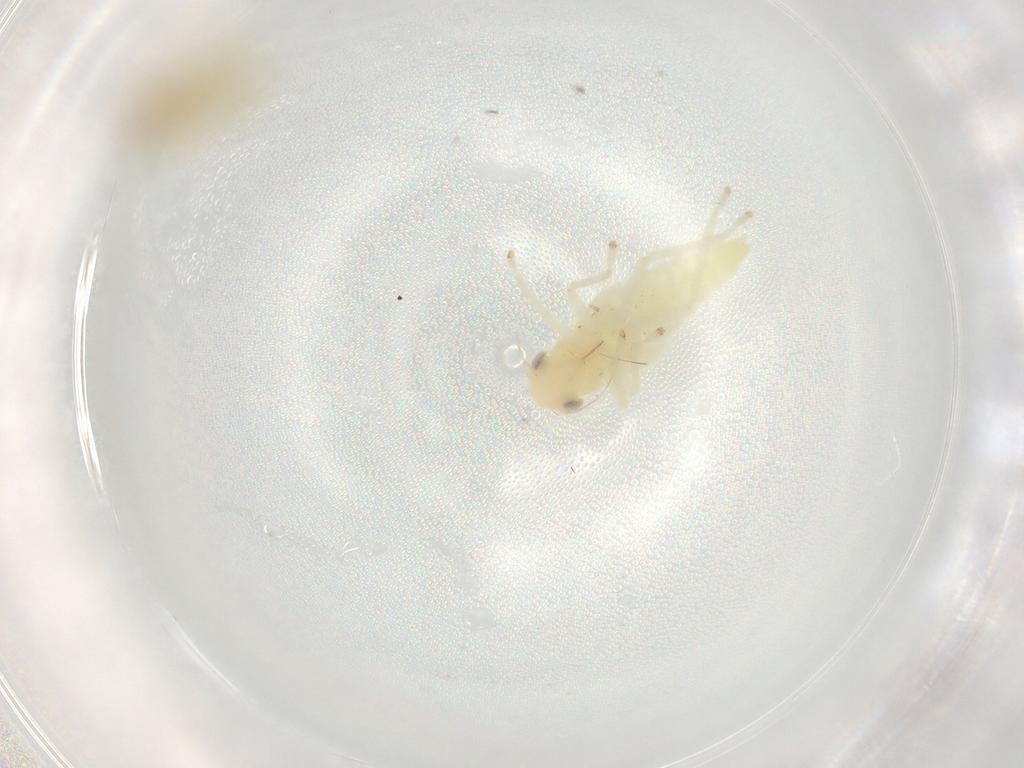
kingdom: Animalia
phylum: Arthropoda
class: Insecta
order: Hemiptera
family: Cicadellidae
